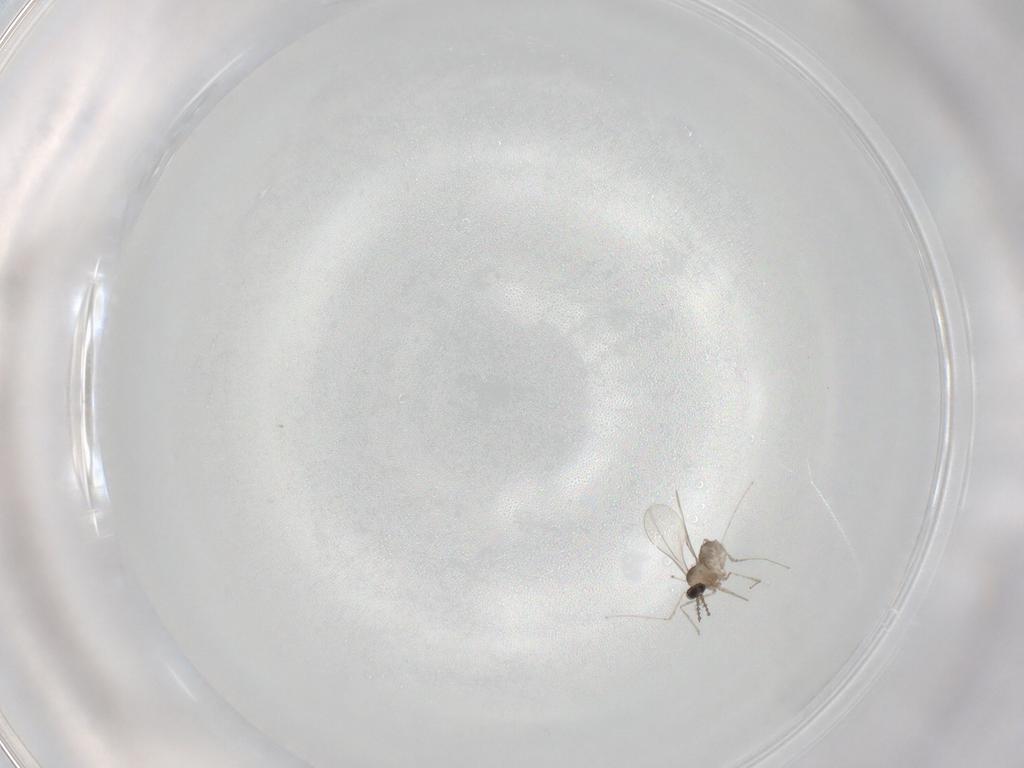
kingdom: Animalia
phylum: Arthropoda
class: Insecta
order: Diptera
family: Cecidomyiidae
